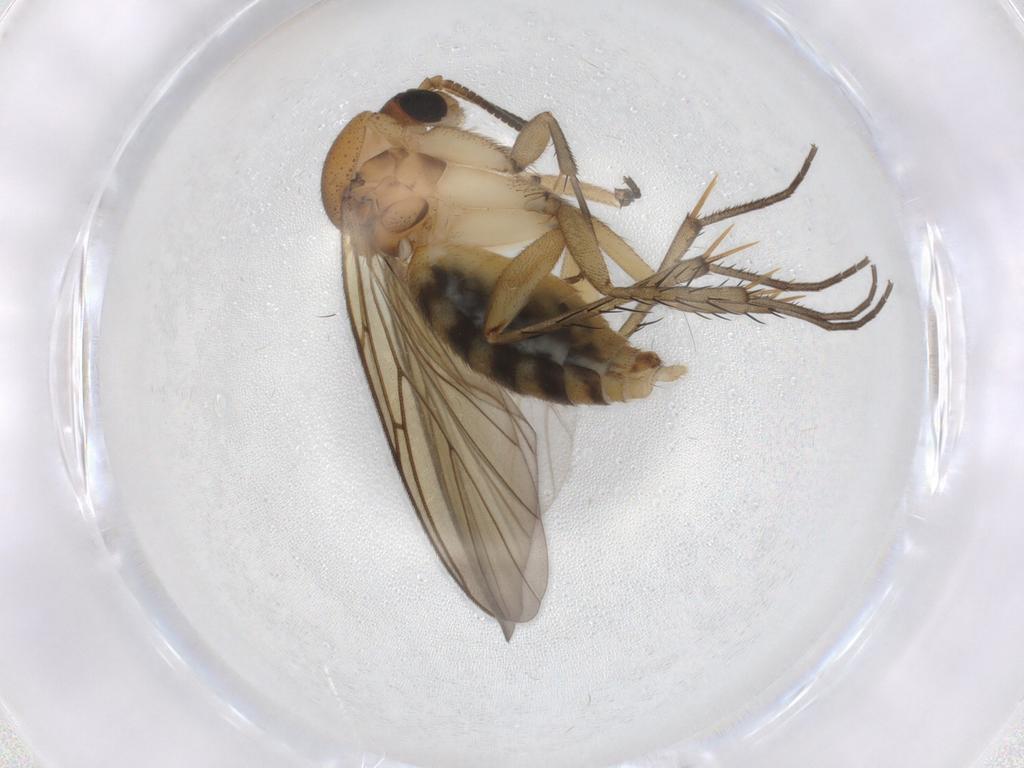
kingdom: Animalia
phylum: Arthropoda
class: Insecta
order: Diptera
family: Mycetophilidae
